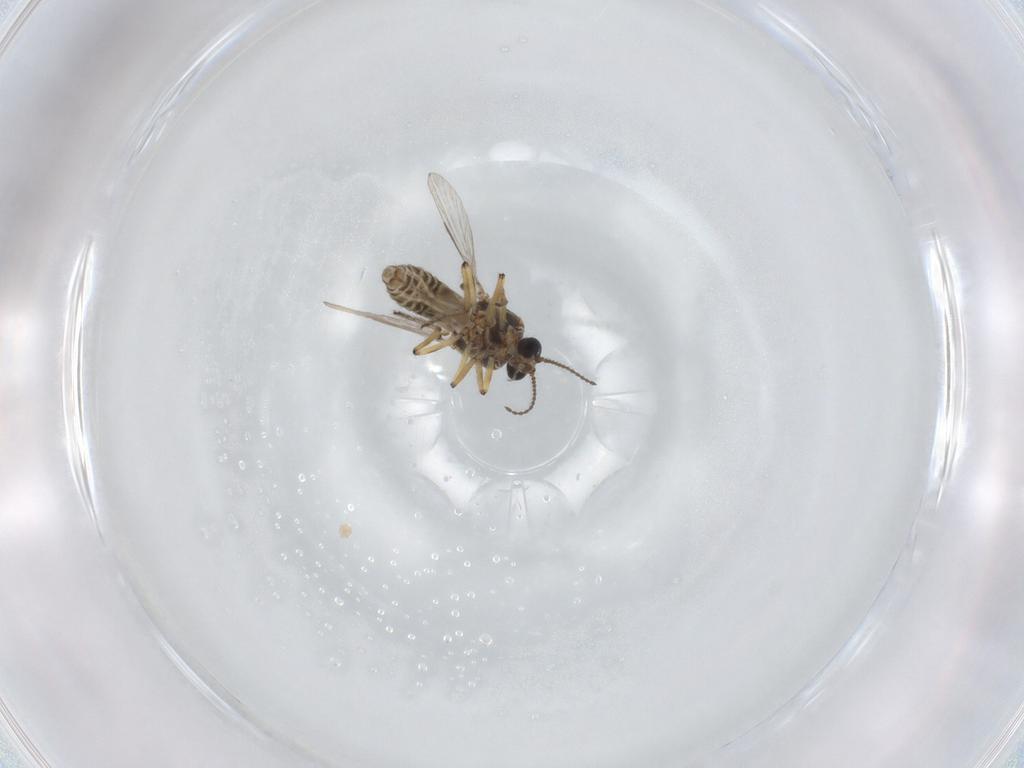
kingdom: Animalia
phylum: Arthropoda
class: Insecta
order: Diptera
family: Ceratopogonidae
